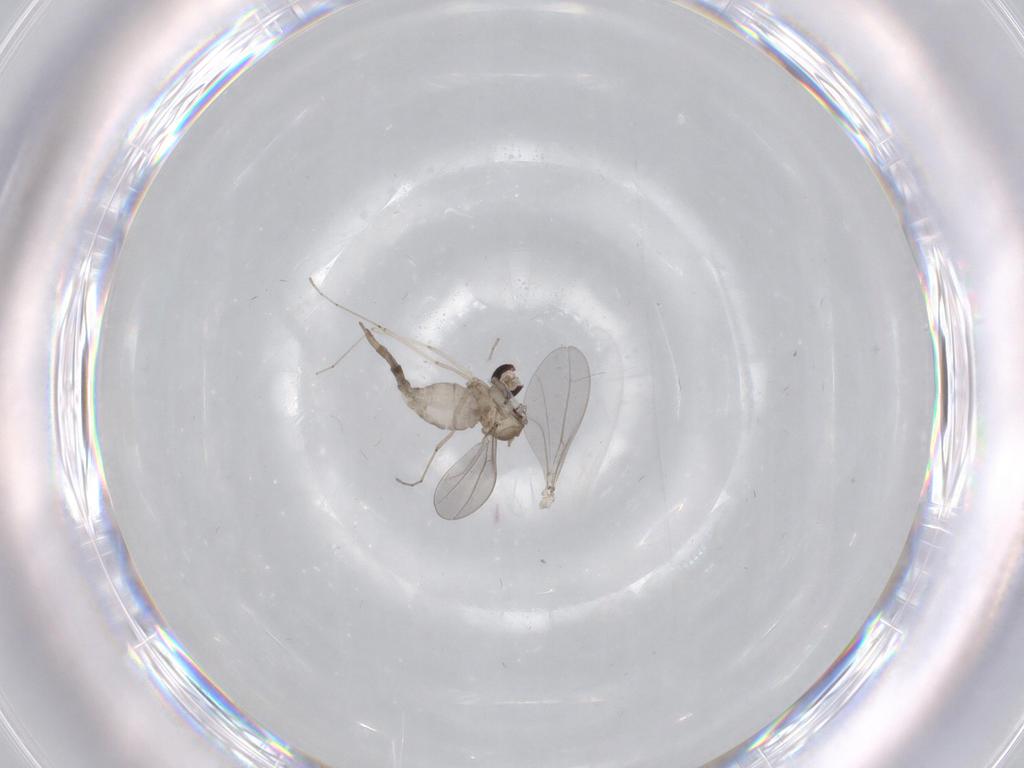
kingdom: Animalia
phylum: Arthropoda
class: Insecta
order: Diptera
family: Cecidomyiidae
